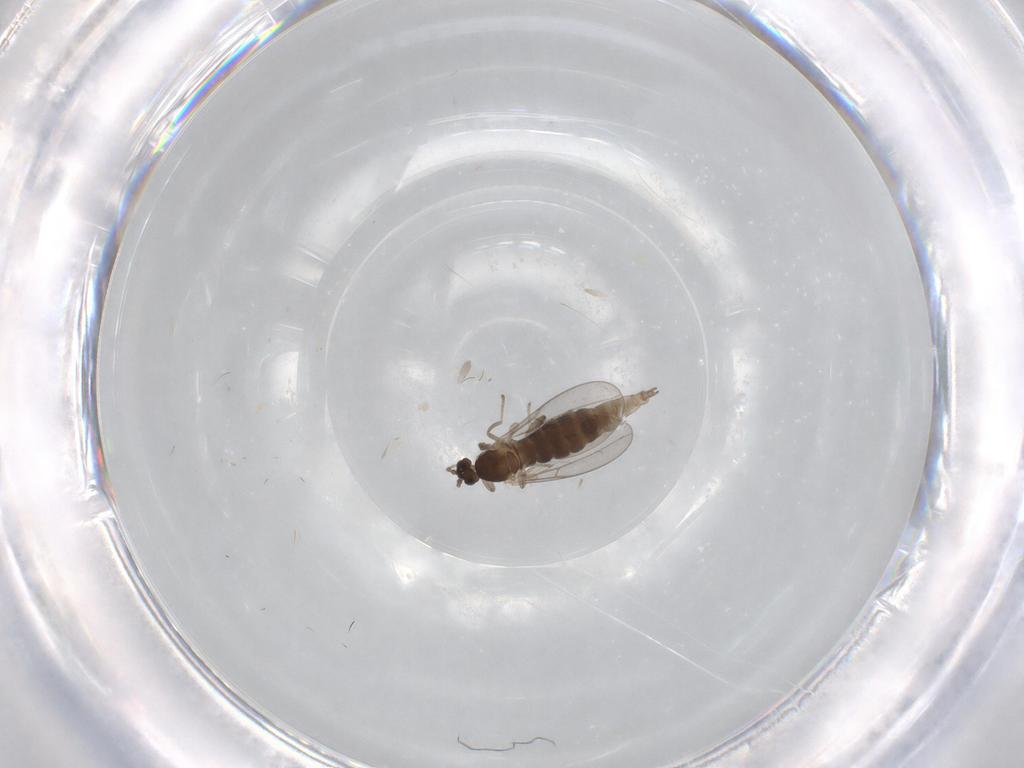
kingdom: Animalia
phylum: Arthropoda
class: Insecta
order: Diptera
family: Cecidomyiidae
